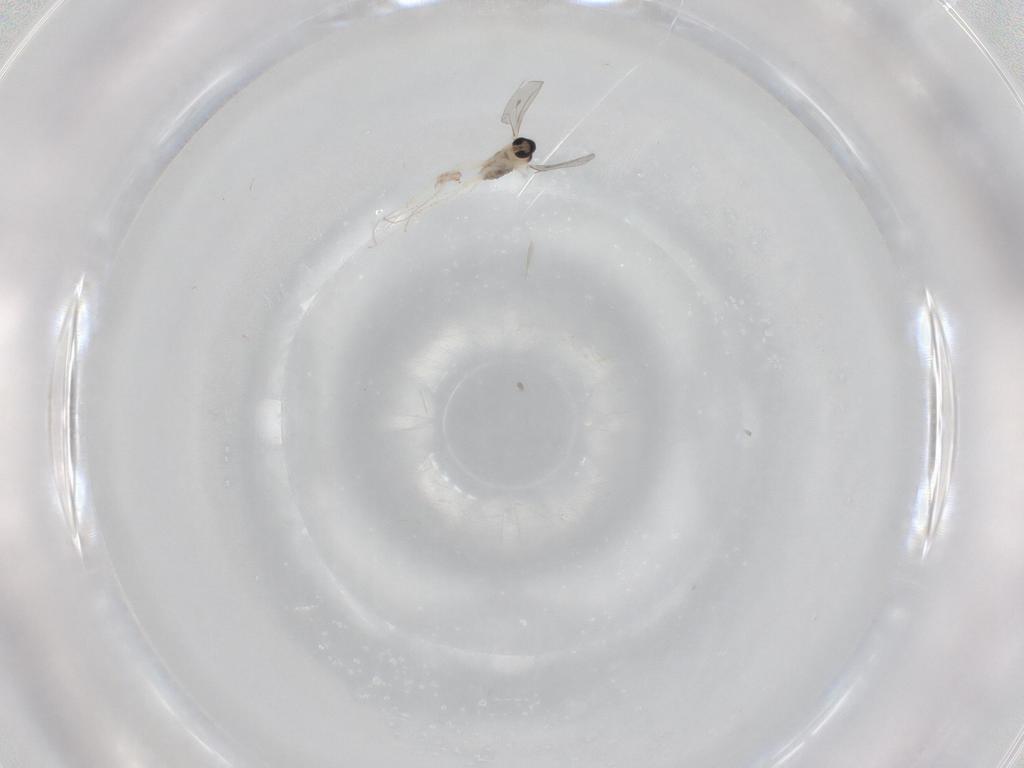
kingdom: Animalia
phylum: Arthropoda
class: Insecta
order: Diptera
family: Cecidomyiidae
